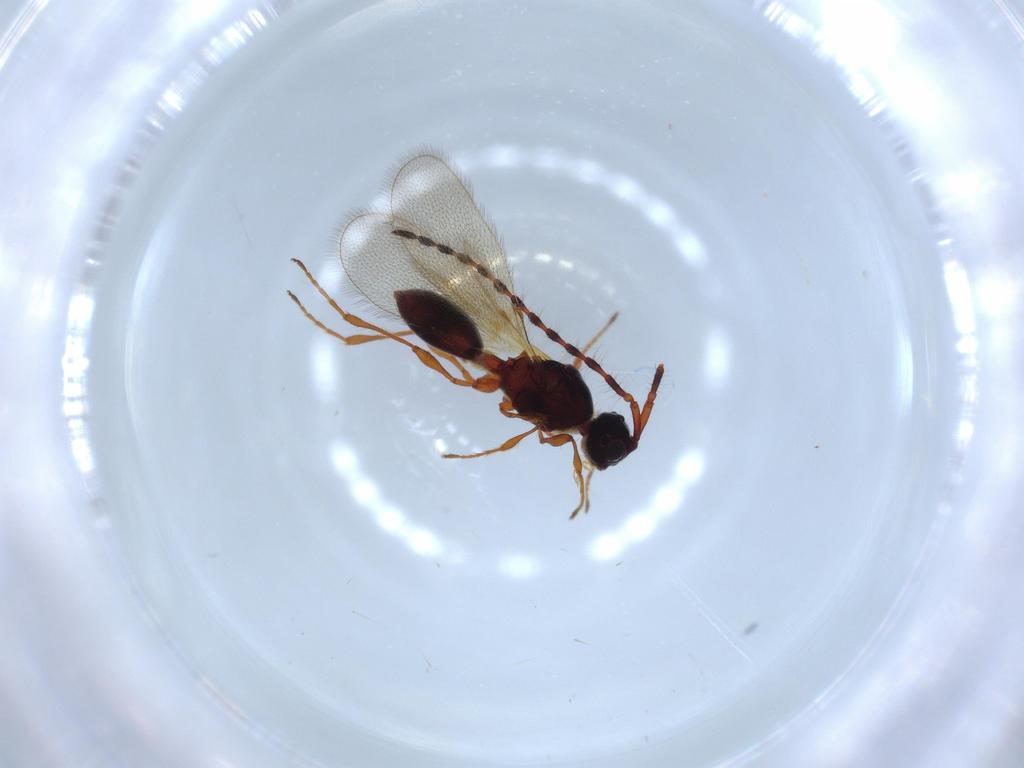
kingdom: Animalia
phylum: Arthropoda
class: Insecta
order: Hymenoptera
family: Diapriidae
